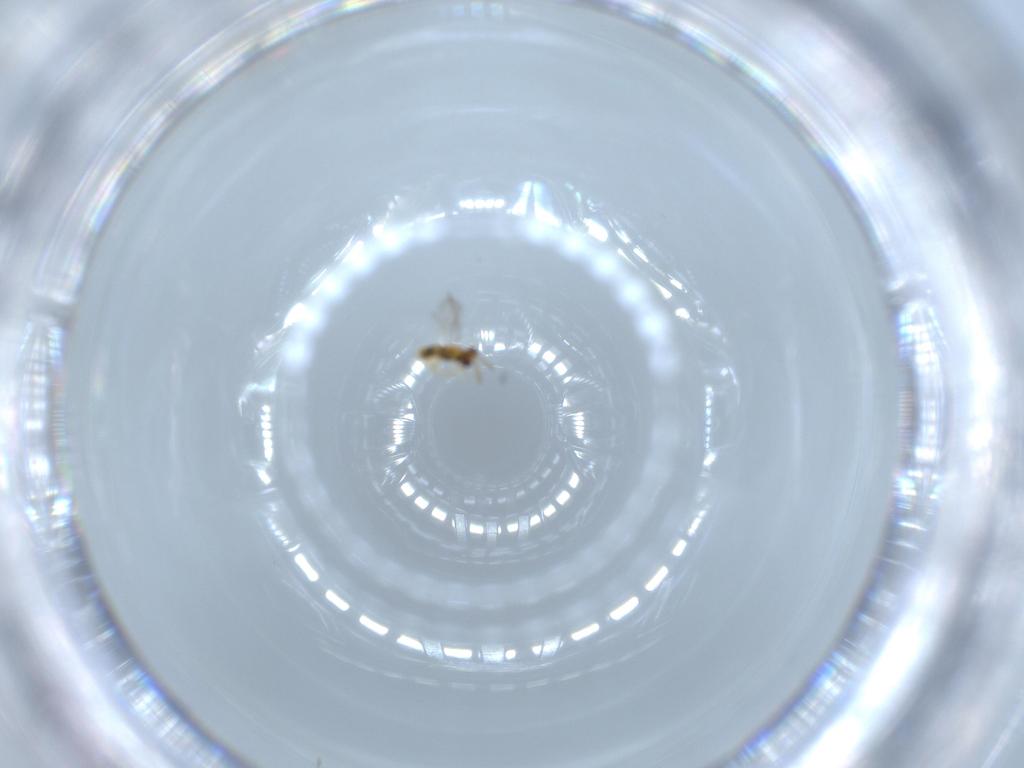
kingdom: Animalia
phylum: Arthropoda
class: Insecta
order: Hymenoptera
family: Aphelinidae
